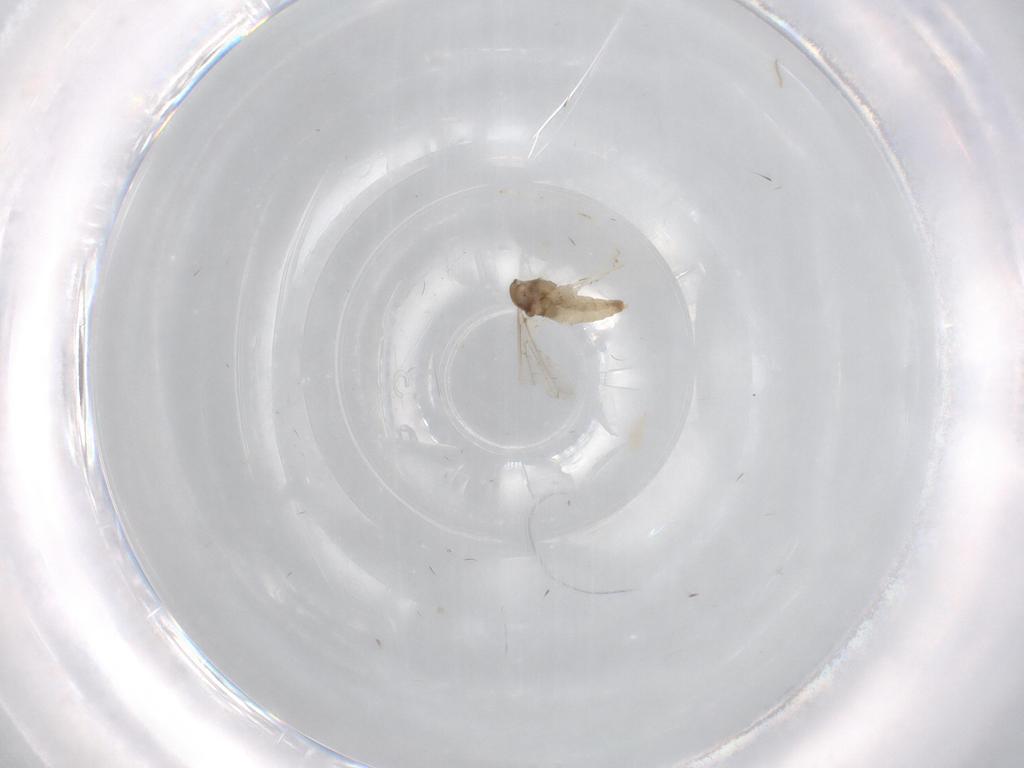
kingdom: Animalia
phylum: Arthropoda
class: Insecta
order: Diptera
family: Cecidomyiidae
